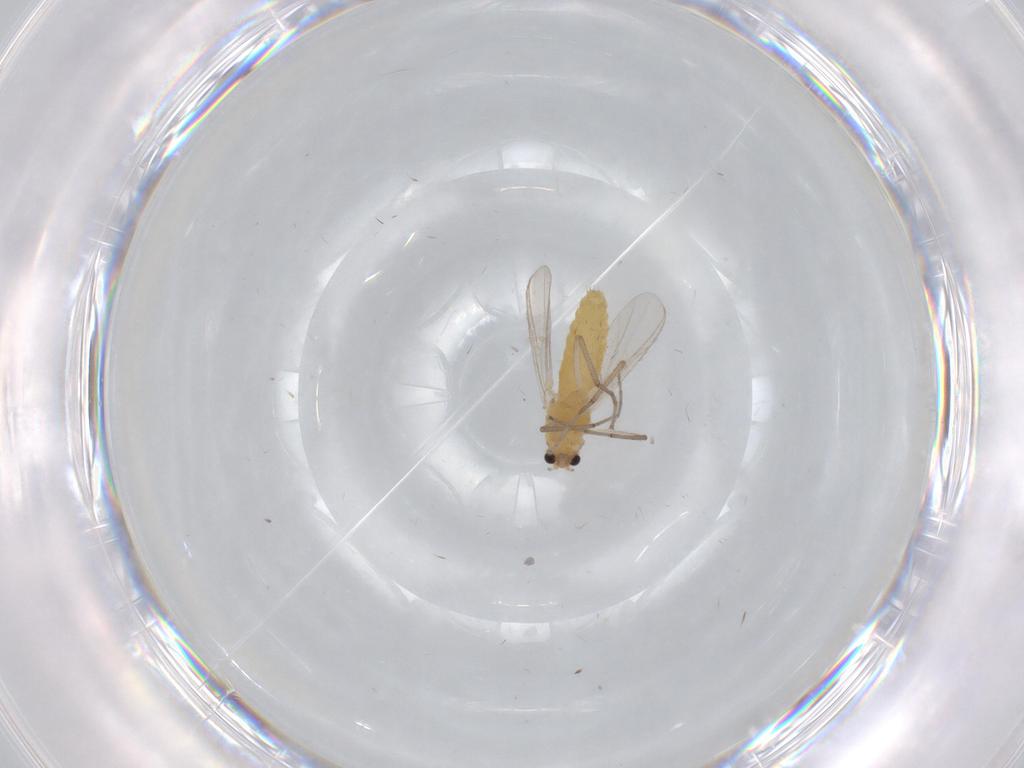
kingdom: Animalia
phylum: Arthropoda
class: Insecta
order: Diptera
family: Chironomidae
